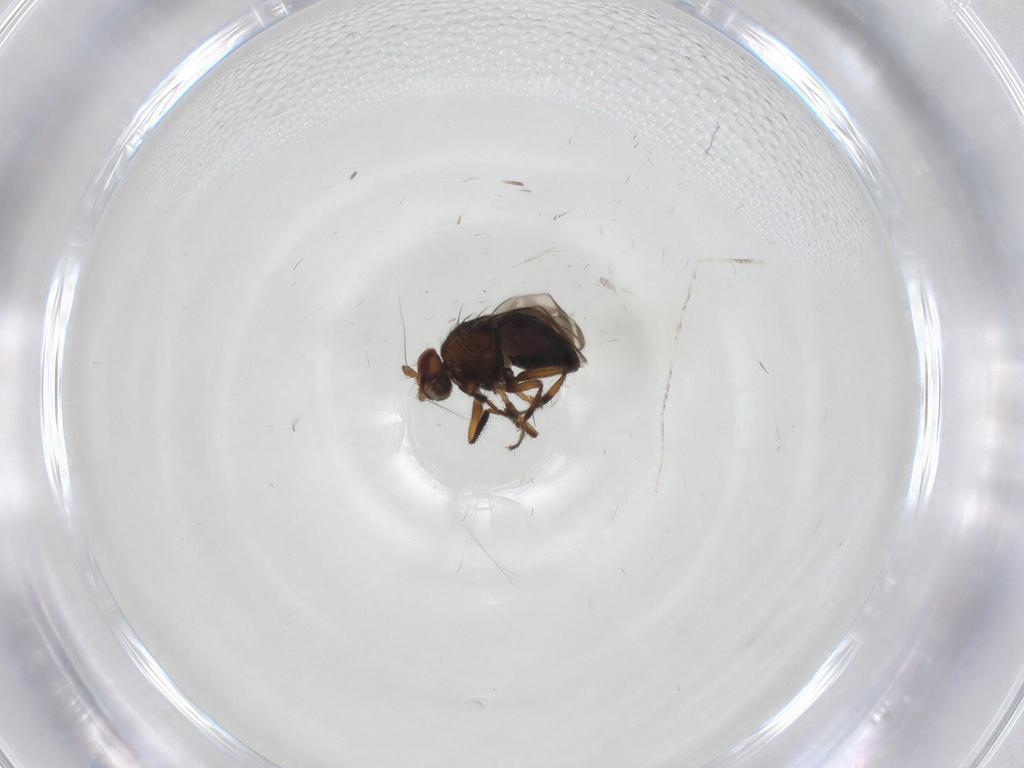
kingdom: Animalia
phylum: Arthropoda
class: Insecta
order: Diptera
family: Sphaeroceridae
